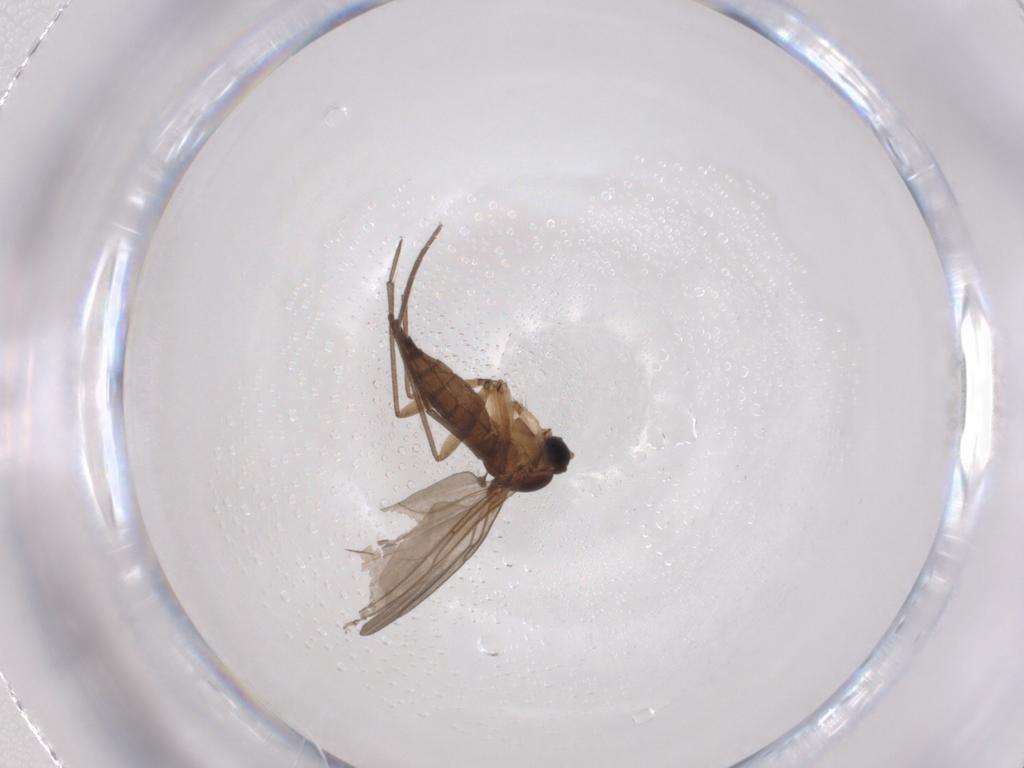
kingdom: Animalia
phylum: Arthropoda
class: Insecta
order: Diptera
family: Sciaridae
